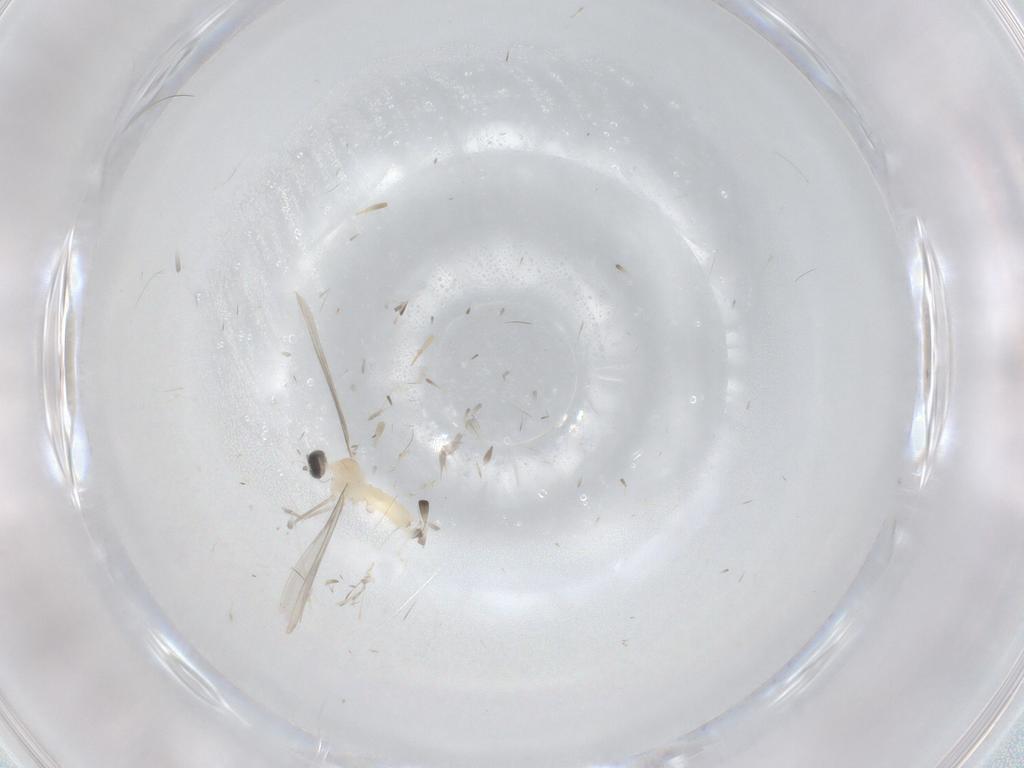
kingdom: Animalia
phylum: Arthropoda
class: Insecta
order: Diptera
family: Cecidomyiidae
